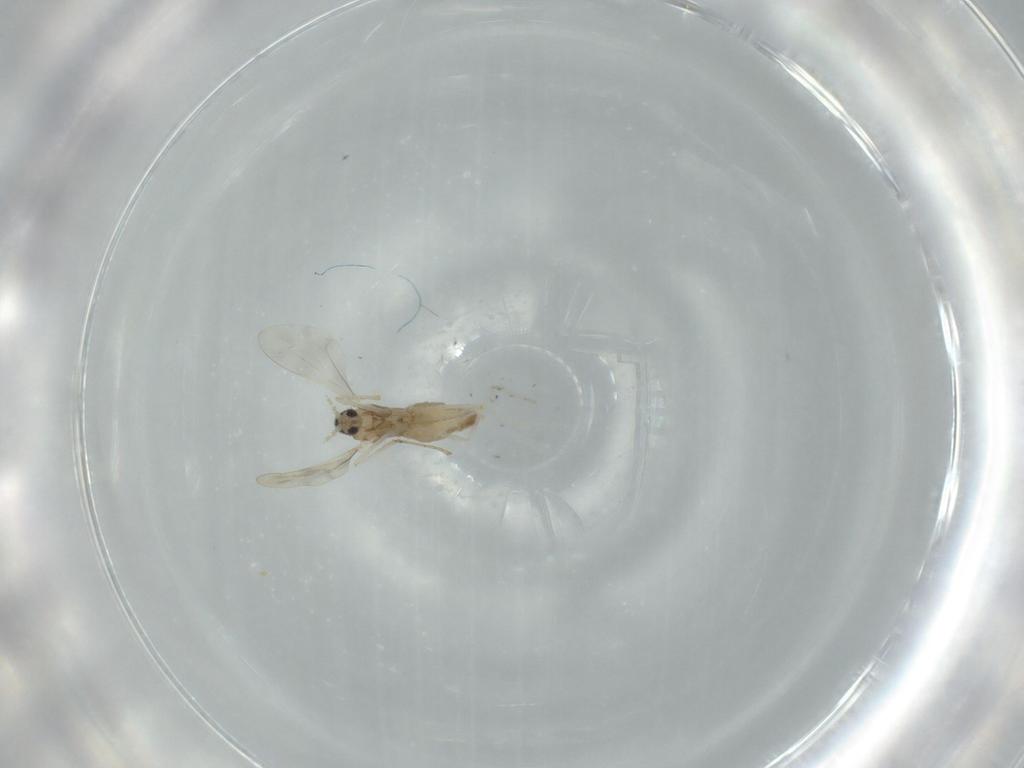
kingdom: Animalia
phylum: Arthropoda
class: Insecta
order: Diptera
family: Cecidomyiidae
